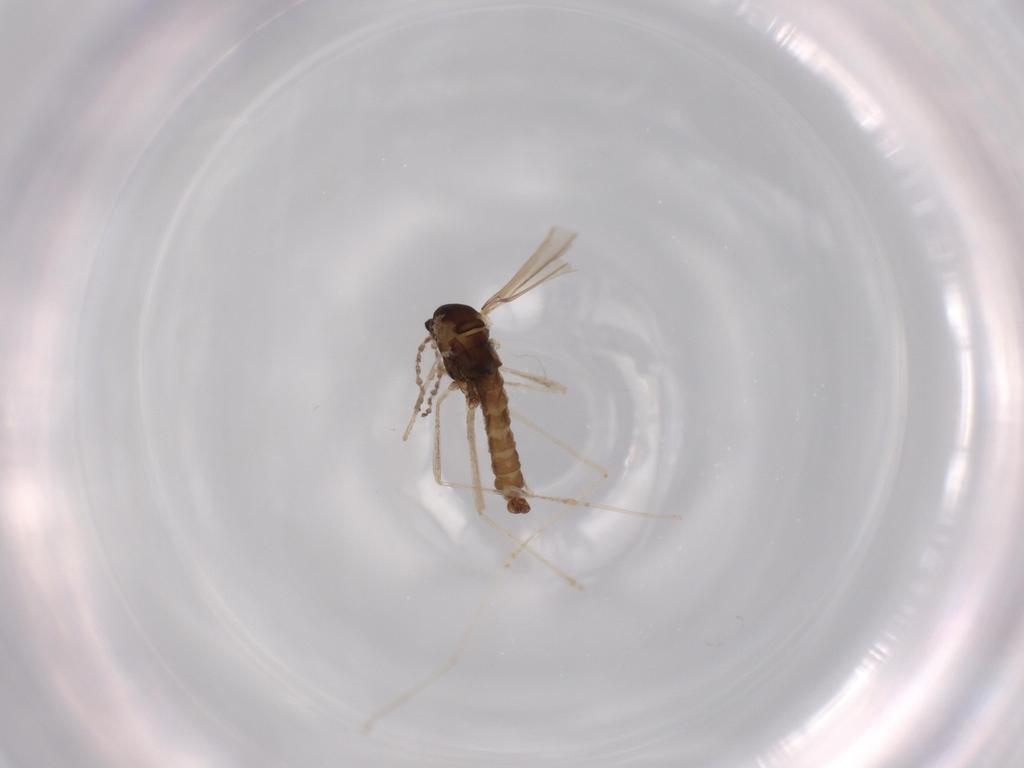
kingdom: Animalia
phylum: Arthropoda
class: Insecta
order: Diptera
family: Cecidomyiidae
